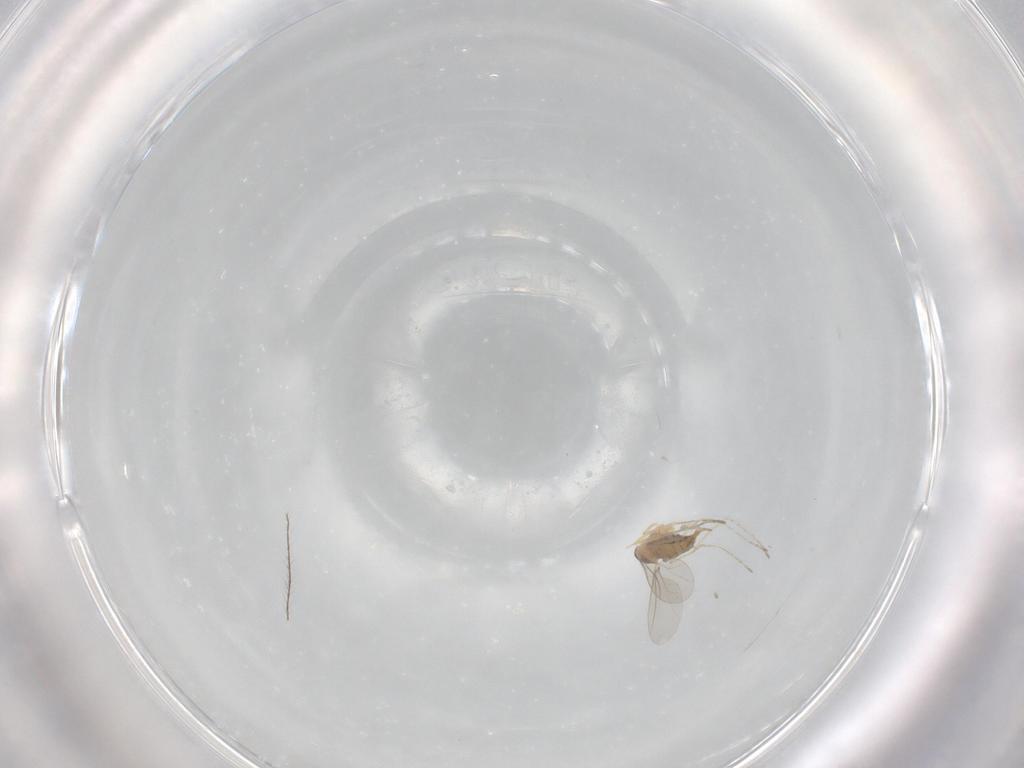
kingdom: Animalia
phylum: Arthropoda
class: Insecta
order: Diptera
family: Cecidomyiidae
